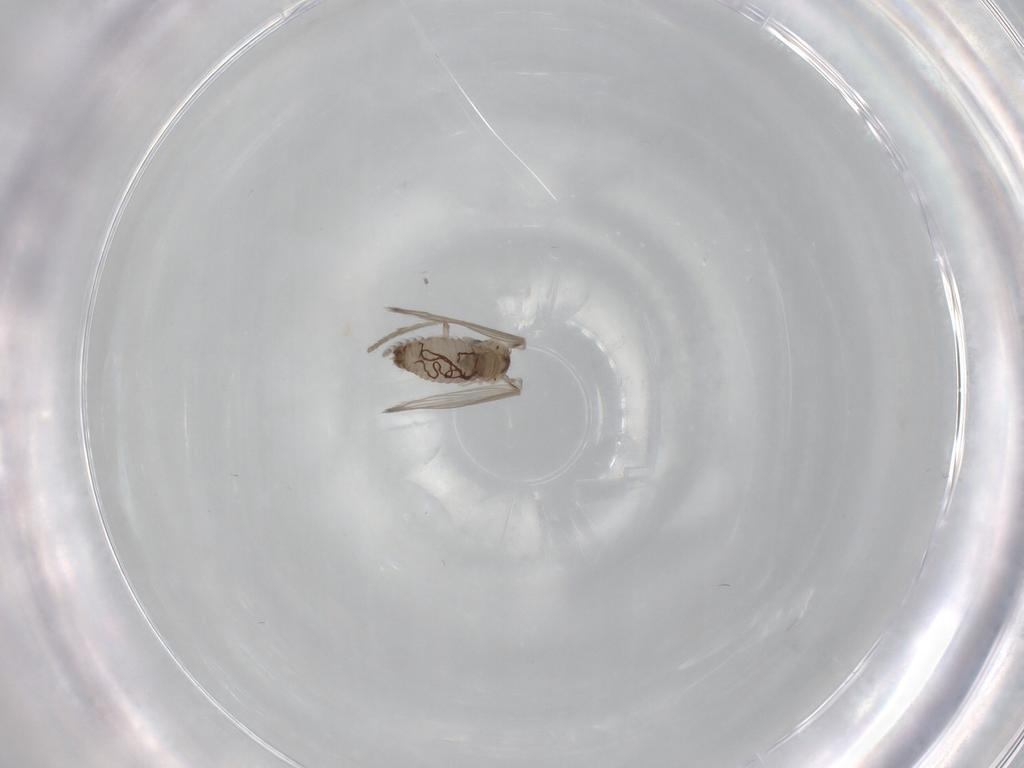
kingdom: Animalia
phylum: Arthropoda
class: Insecta
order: Diptera
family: Psychodidae
